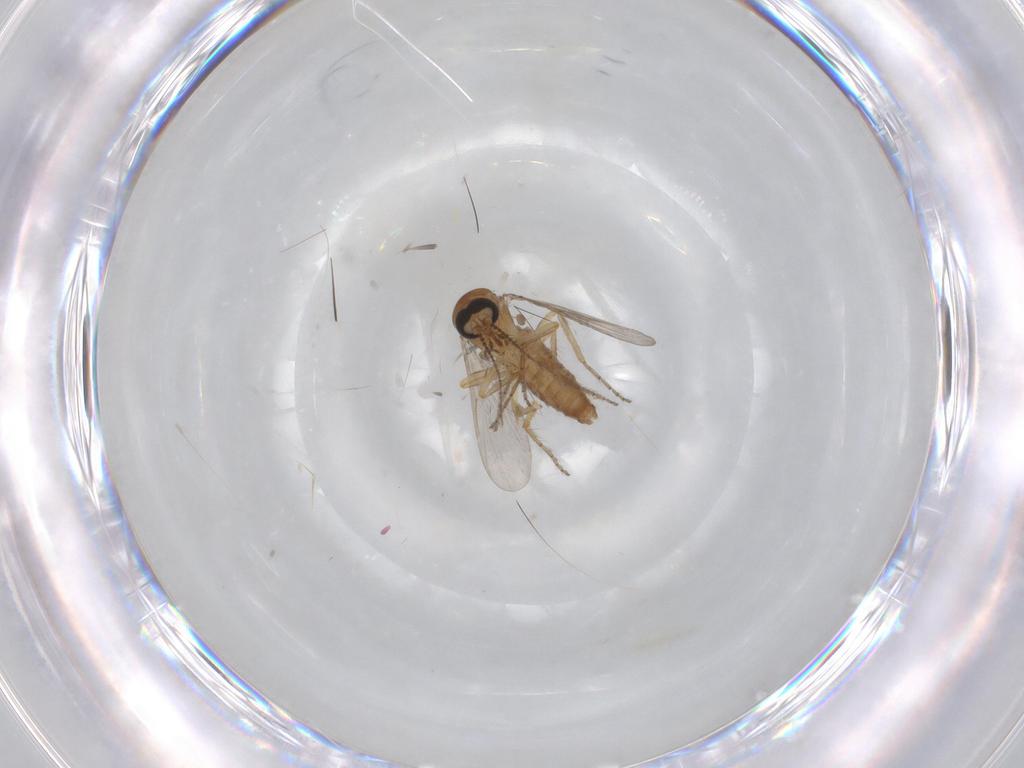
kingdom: Animalia
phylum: Arthropoda
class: Insecta
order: Diptera
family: Ceratopogonidae
